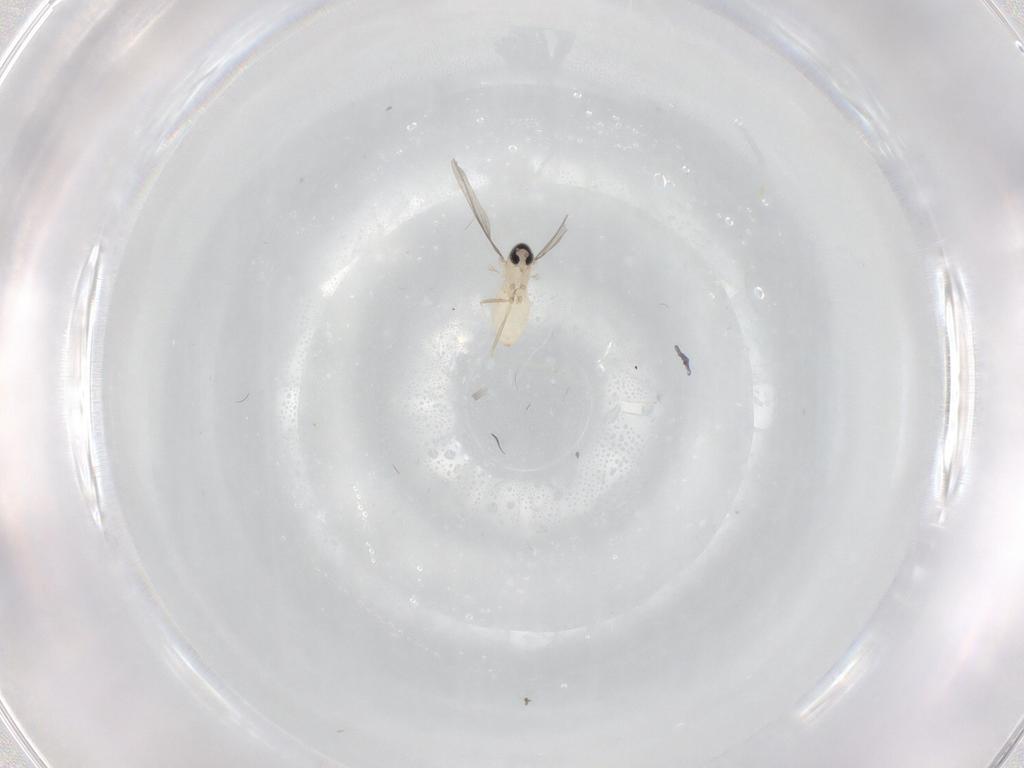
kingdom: Animalia
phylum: Arthropoda
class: Insecta
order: Diptera
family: Cecidomyiidae
